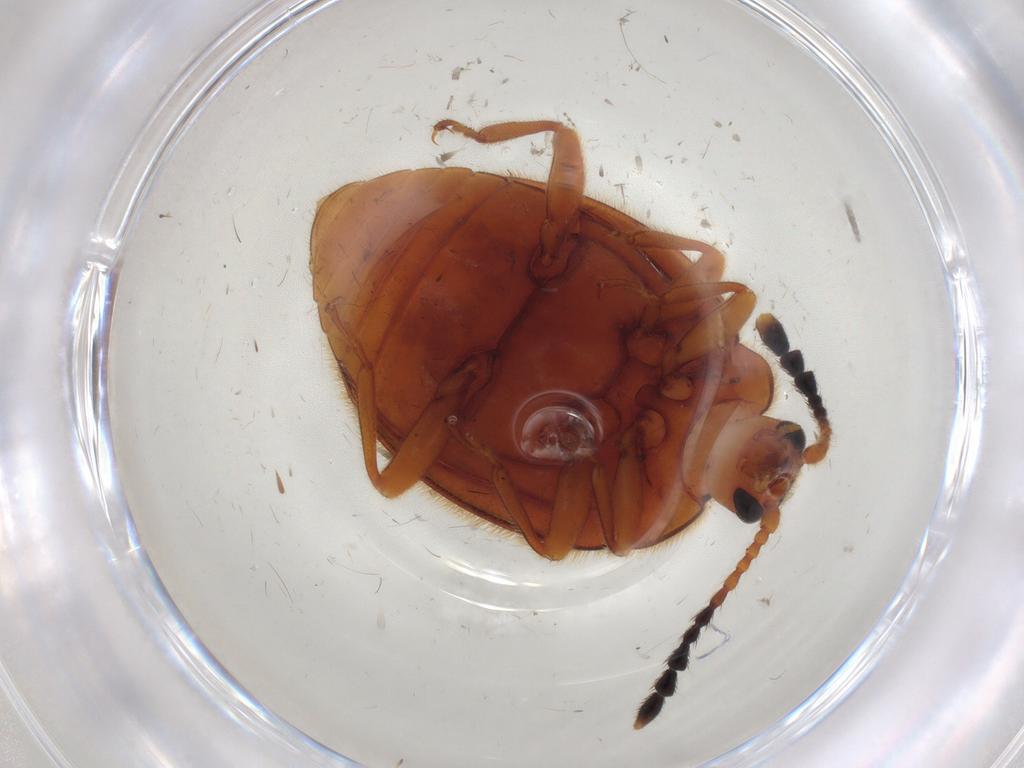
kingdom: Animalia
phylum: Arthropoda
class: Insecta
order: Coleoptera
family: Endomychidae
